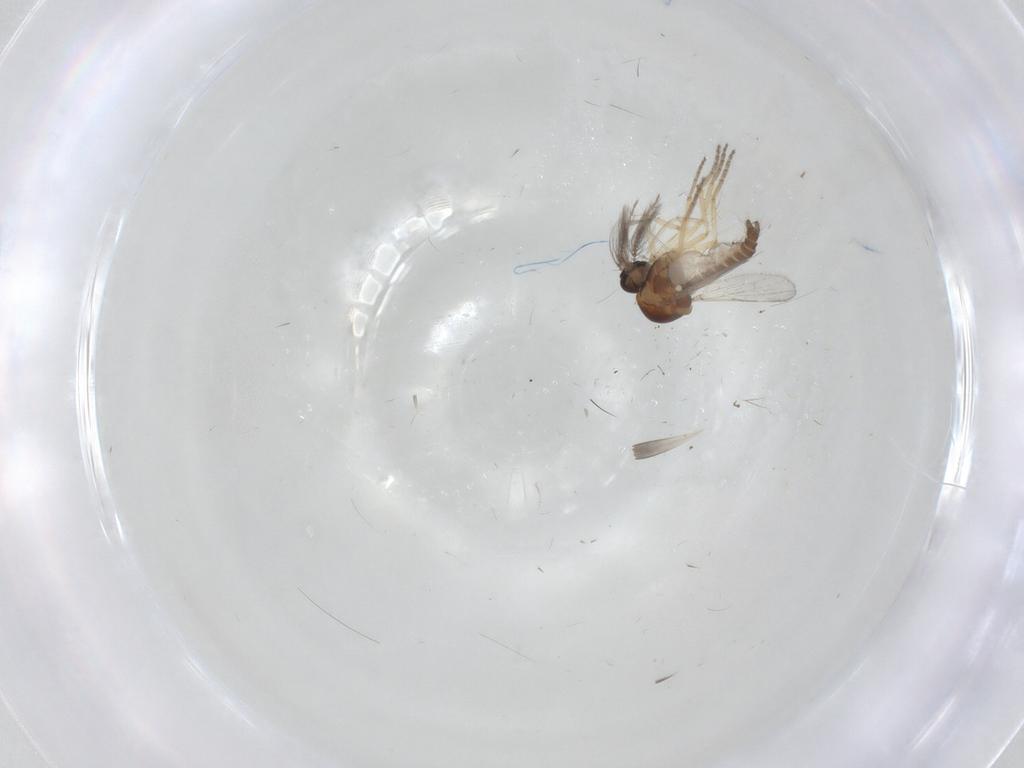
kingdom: Animalia
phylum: Arthropoda
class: Insecta
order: Diptera
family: Ceratopogonidae
